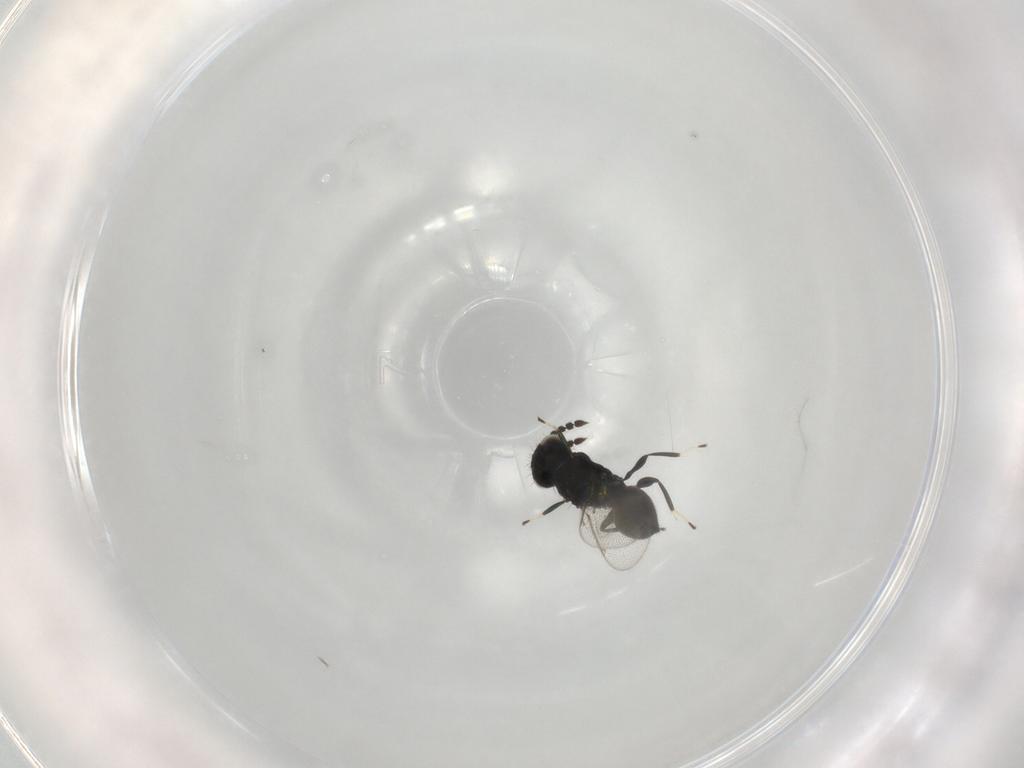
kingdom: Animalia
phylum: Arthropoda
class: Insecta
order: Hymenoptera
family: Eulophidae
